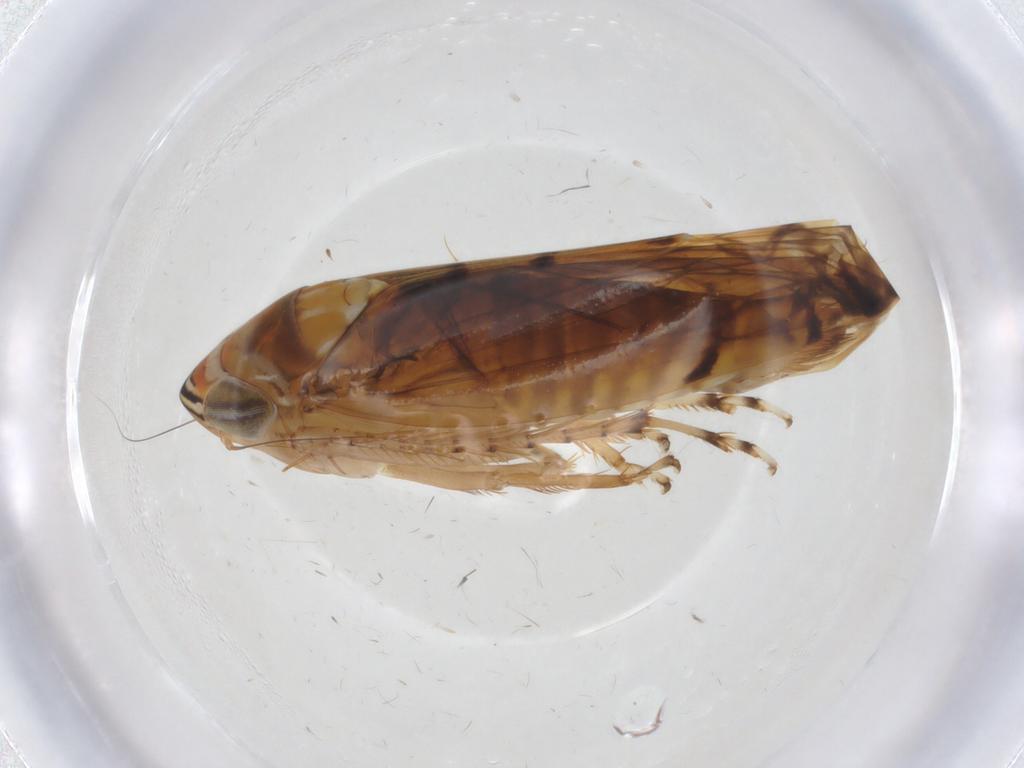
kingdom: Animalia
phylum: Arthropoda
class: Insecta
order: Hemiptera
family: Cercopidae
